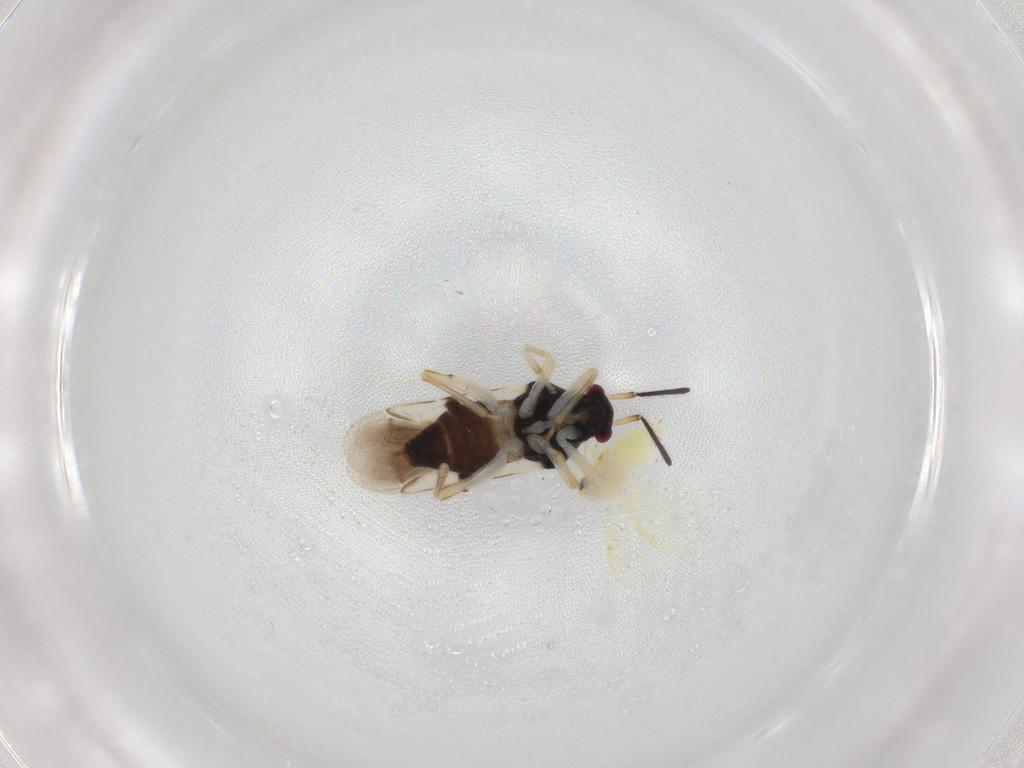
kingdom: Animalia
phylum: Arthropoda
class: Insecta
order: Hemiptera
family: Miridae
